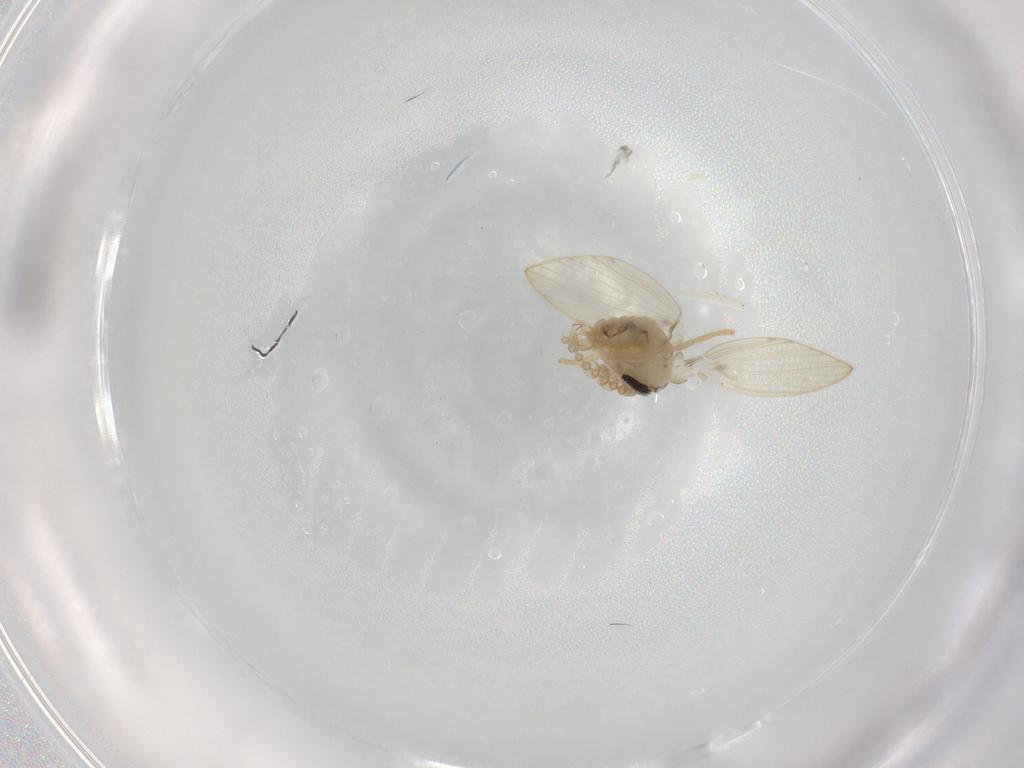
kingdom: Animalia
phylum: Arthropoda
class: Insecta
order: Diptera
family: Psychodidae
